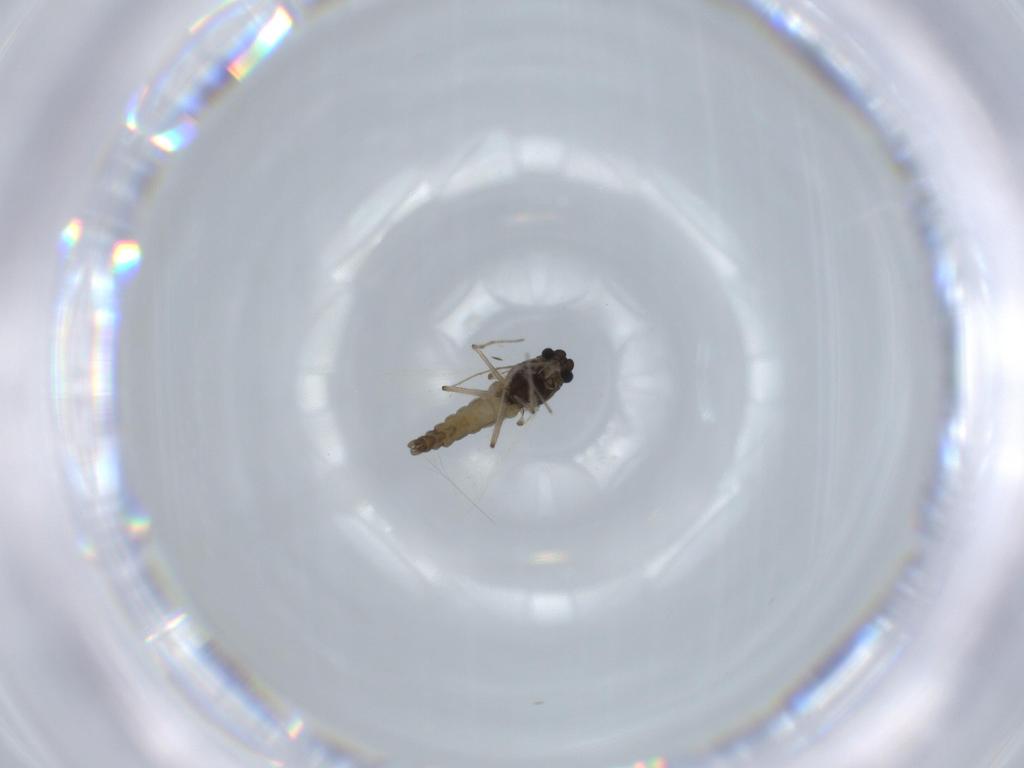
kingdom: Animalia
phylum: Arthropoda
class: Insecta
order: Diptera
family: Chironomidae
